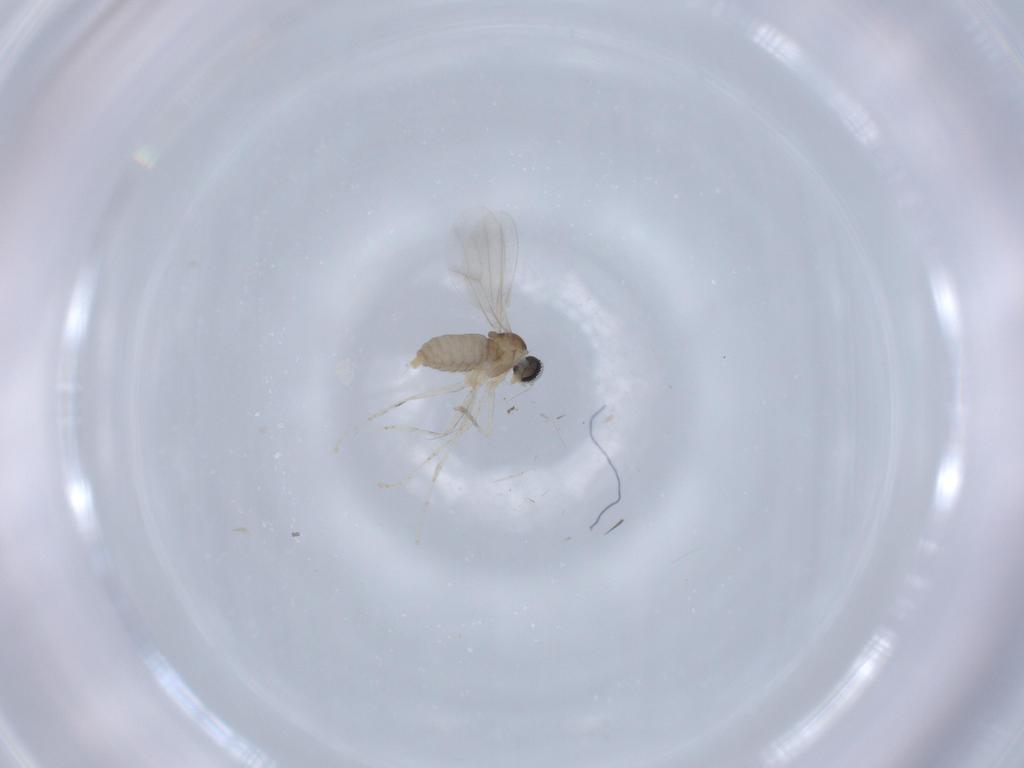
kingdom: Animalia
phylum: Arthropoda
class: Insecta
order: Diptera
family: Cecidomyiidae
